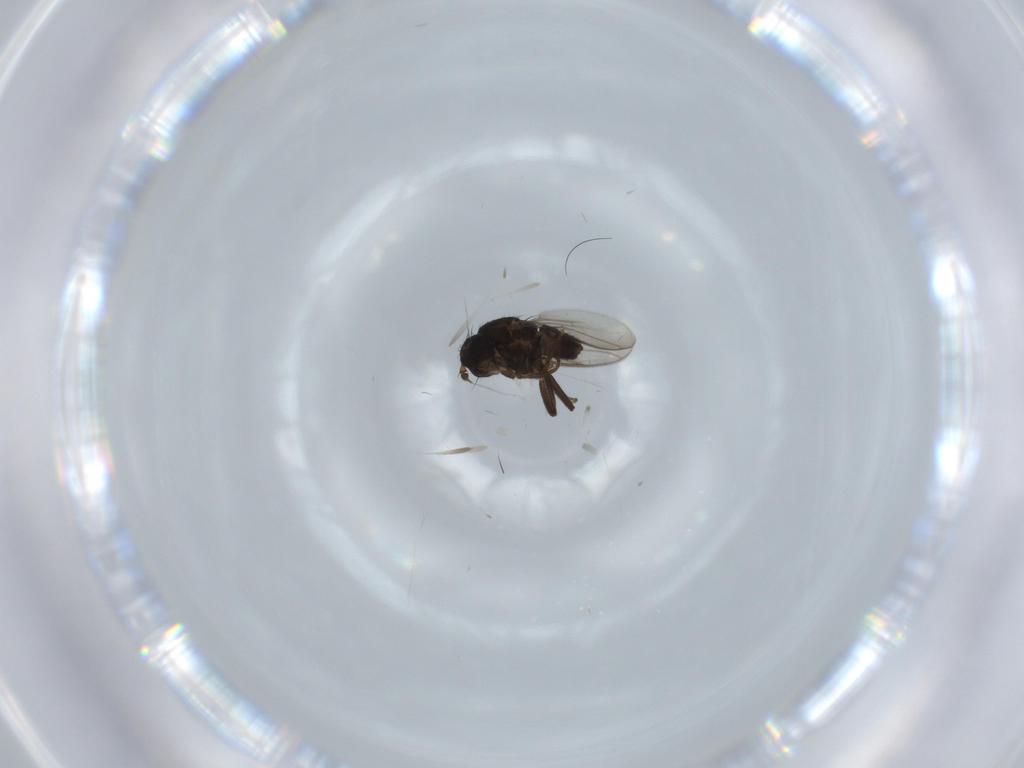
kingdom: Animalia
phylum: Arthropoda
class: Insecta
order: Diptera
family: Sphaeroceridae
